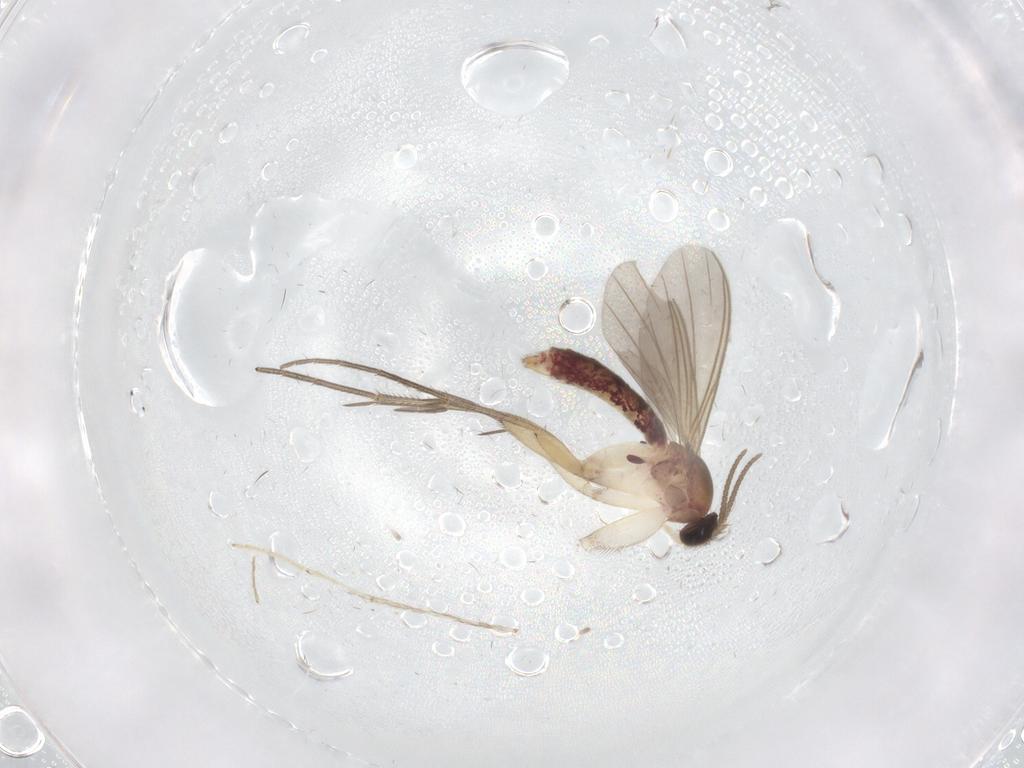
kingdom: Animalia
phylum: Arthropoda
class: Insecta
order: Diptera
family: Mycetophilidae
